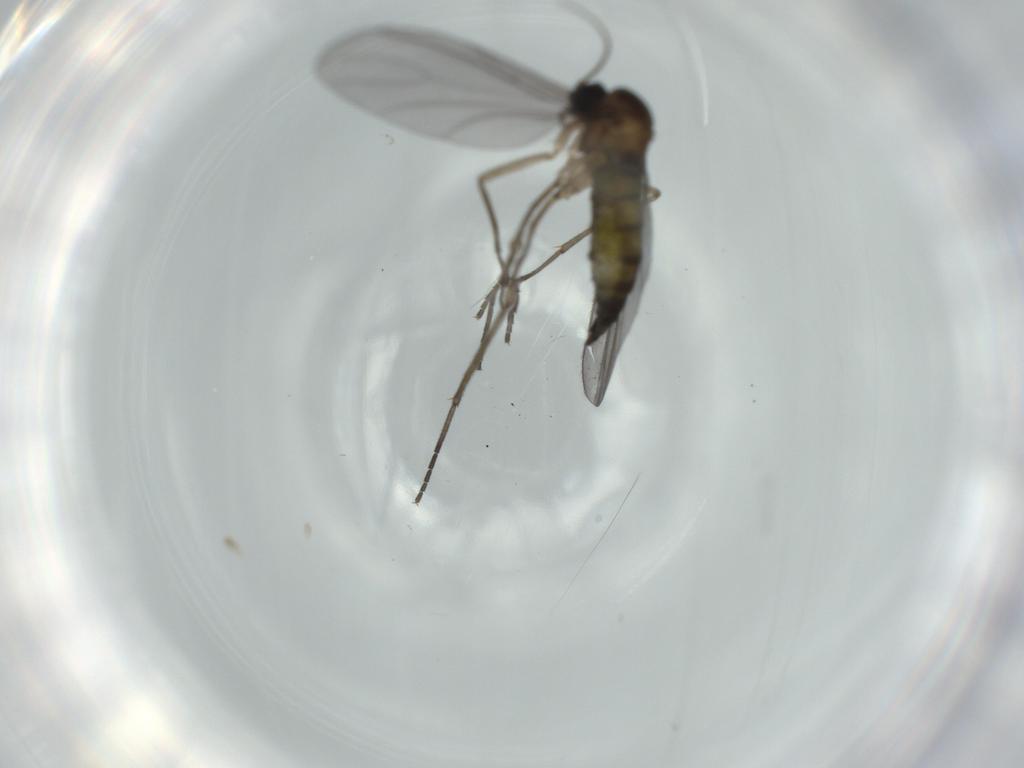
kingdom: Animalia
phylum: Arthropoda
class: Insecta
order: Diptera
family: Sciaridae
